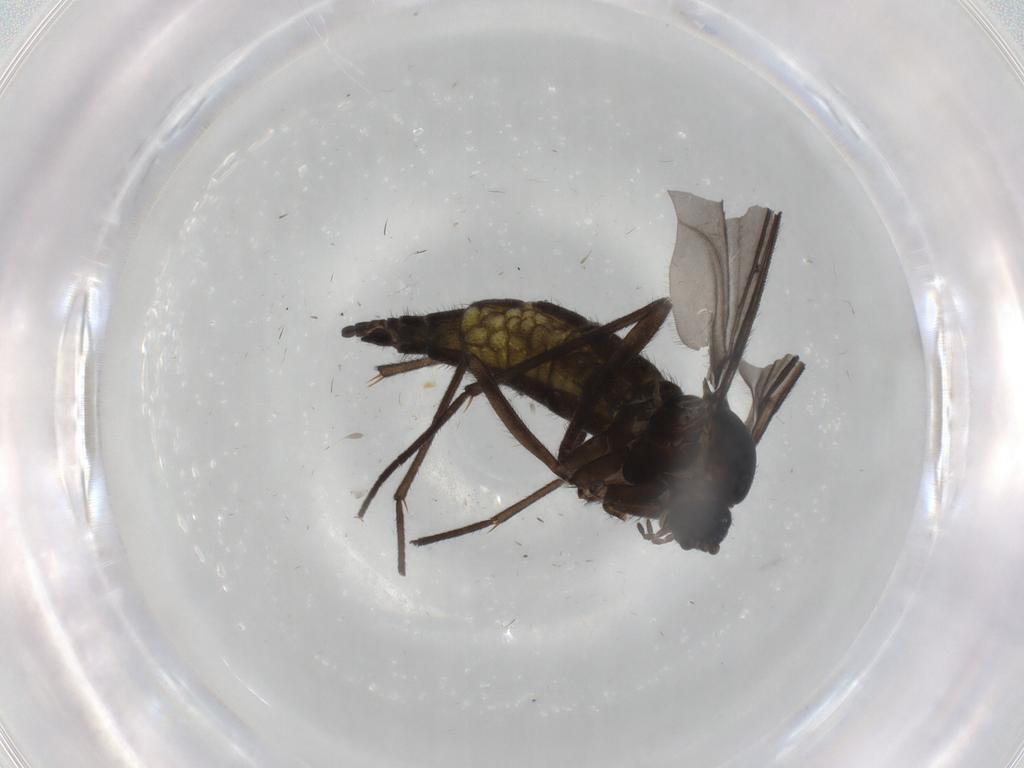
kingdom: Animalia
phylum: Arthropoda
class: Insecta
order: Diptera
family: Sciaridae
